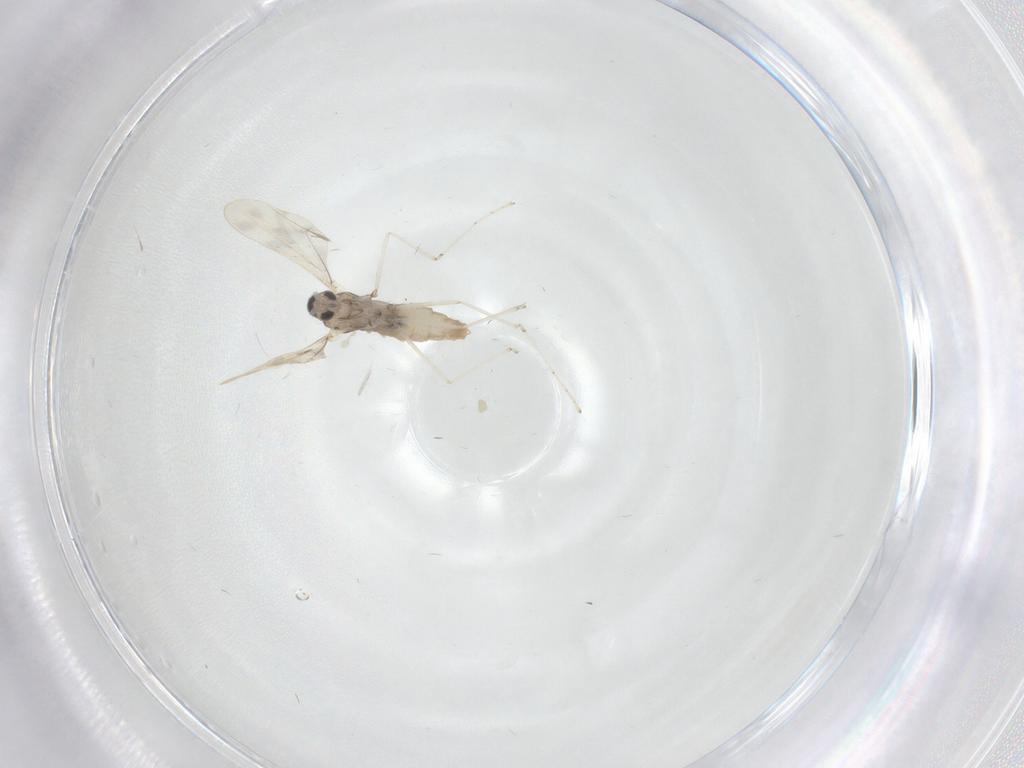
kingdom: Animalia
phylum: Arthropoda
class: Insecta
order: Diptera
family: Cecidomyiidae
